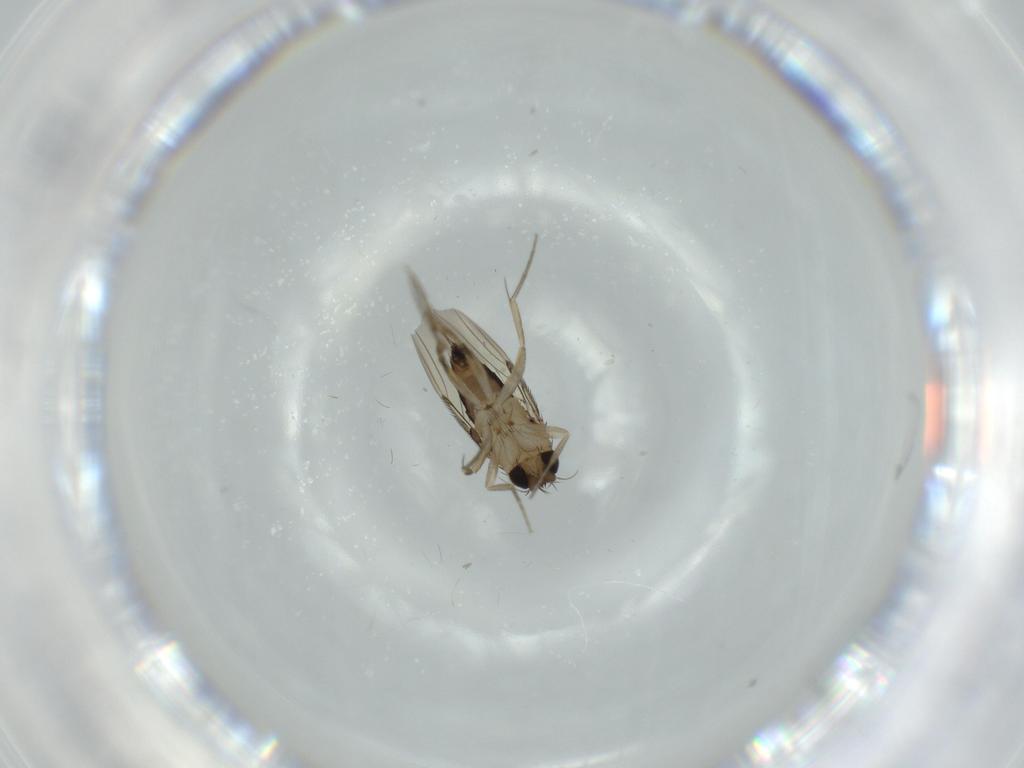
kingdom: Animalia
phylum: Arthropoda
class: Insecta
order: Diptera
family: Phoridae
